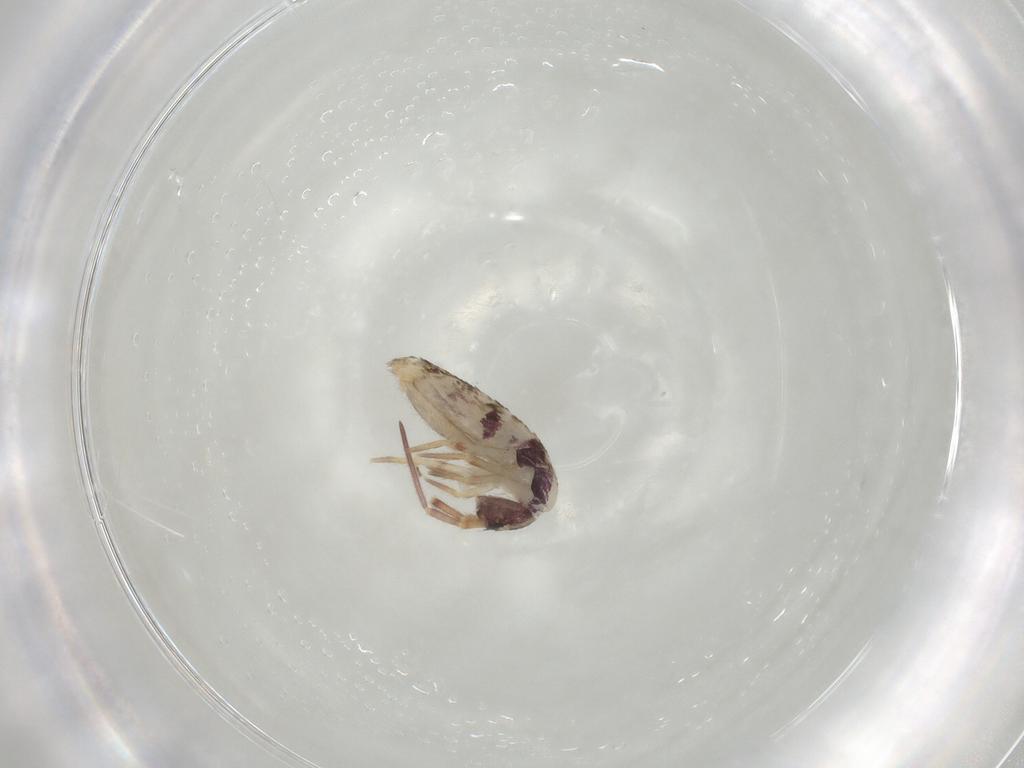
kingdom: Animalia
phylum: Arthropoda
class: Collembola
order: Entomobryomorpha
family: Entomobryidae
